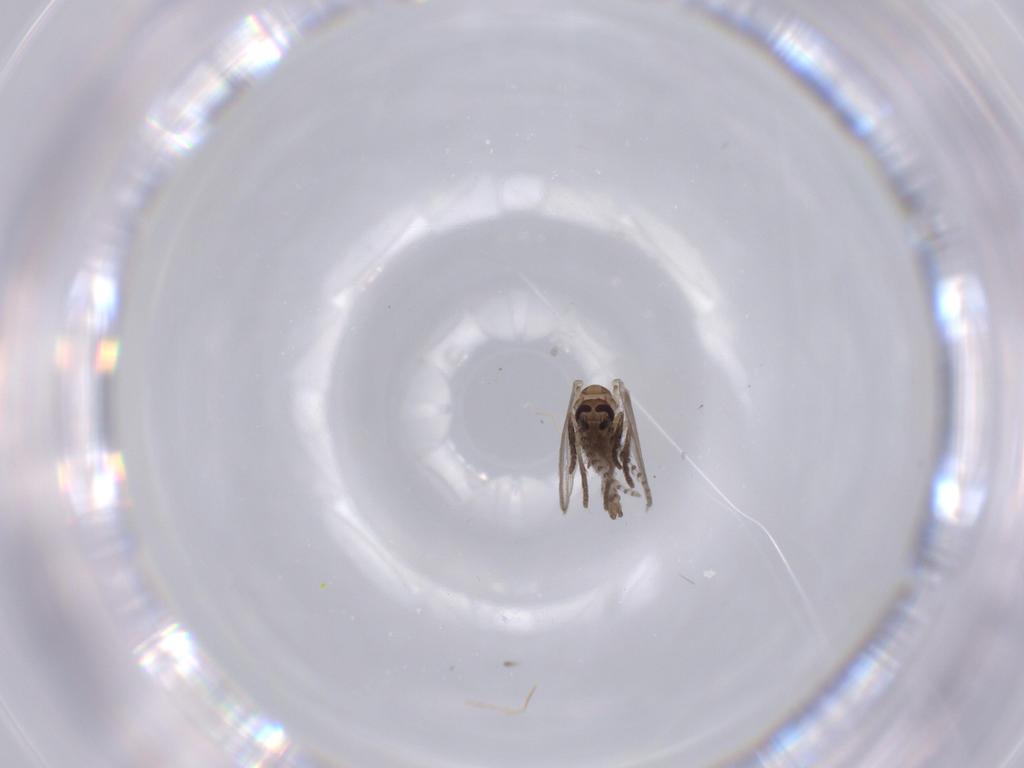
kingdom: Animalia
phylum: Arthropoda
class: Insecta
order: Diptera
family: Psychodidae
